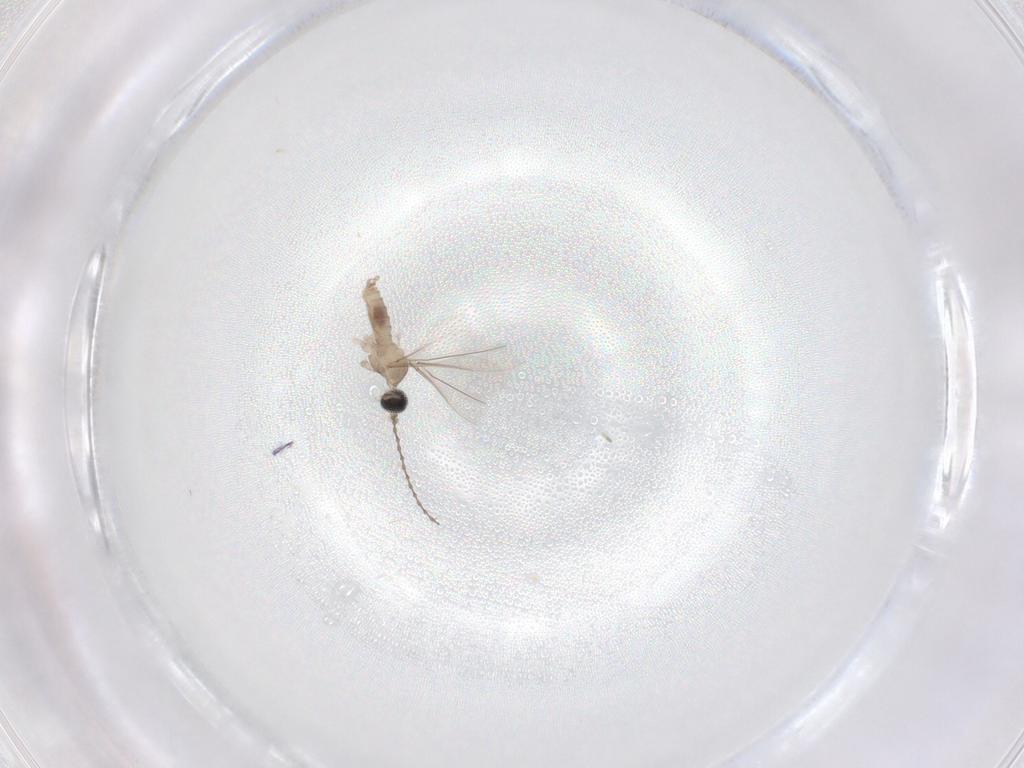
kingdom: Animalia
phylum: Arthropoda
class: Insecta
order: Diptera
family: Cecidomyiidae
